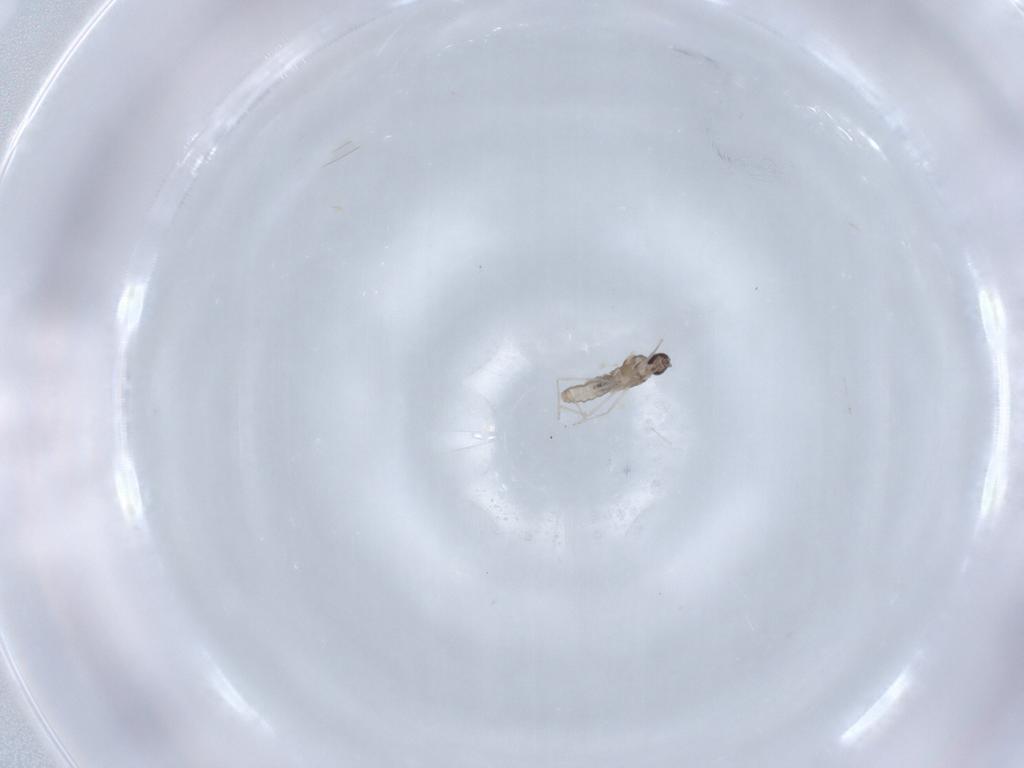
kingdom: Animalia
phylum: Arthropoda
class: Insecta
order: Diptera
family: Cecidomyiidae
